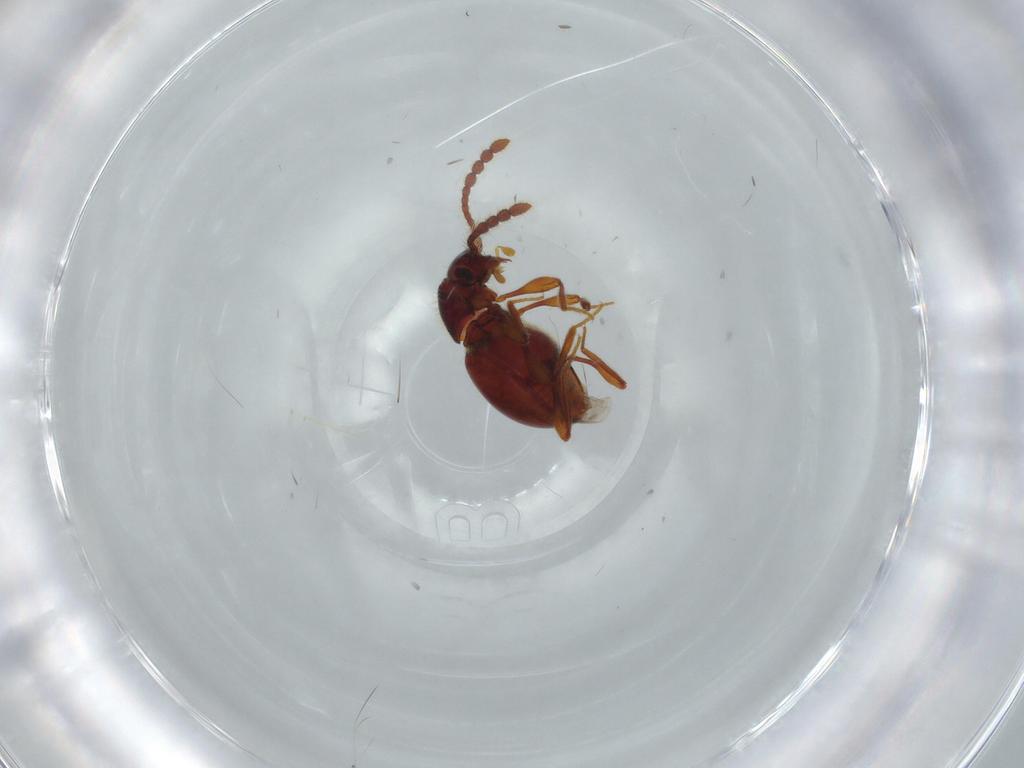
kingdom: Animalia
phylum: Arthropoda
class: Insecta
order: Coleoptera
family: Staphylinidae
